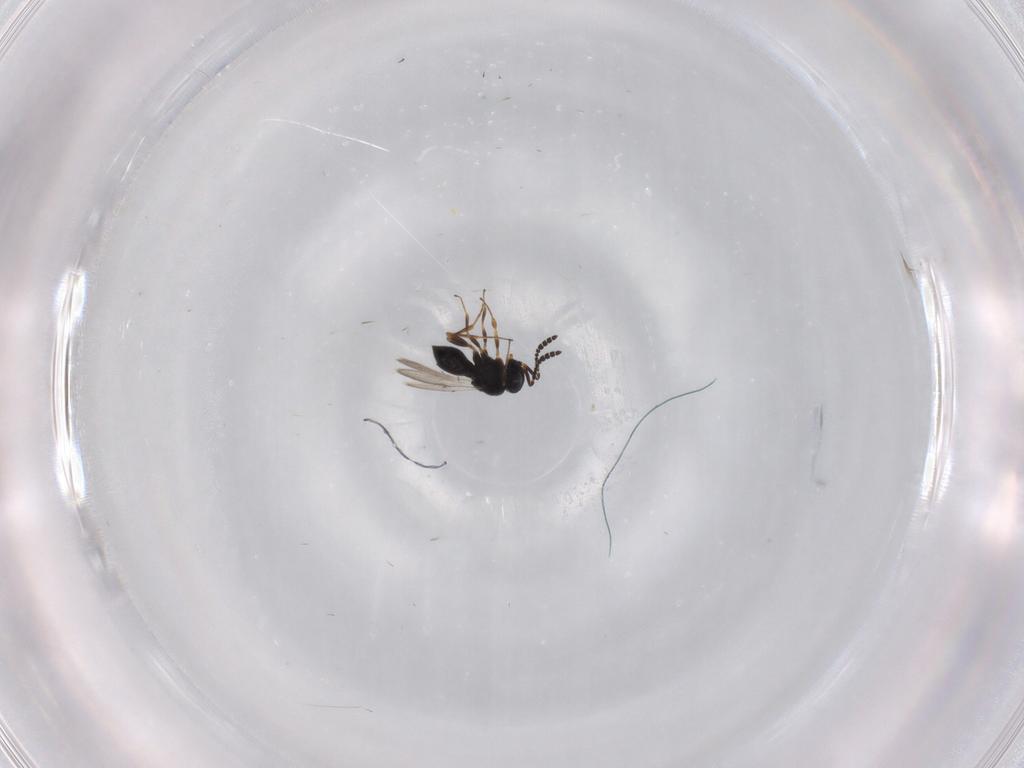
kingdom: Animalia
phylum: Arthropoda
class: Insecta
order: Hymenoptera
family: Scelionidae
